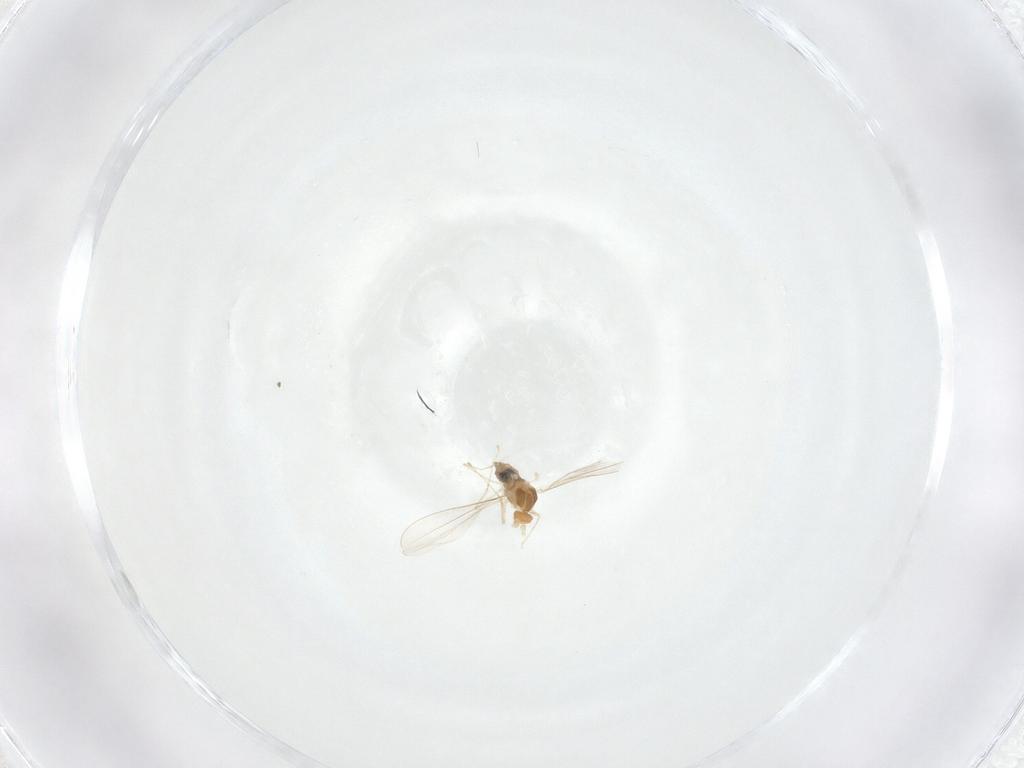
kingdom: Animalia
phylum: Arthropoda
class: Insecta
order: Diptera
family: Cecidomyiidae
